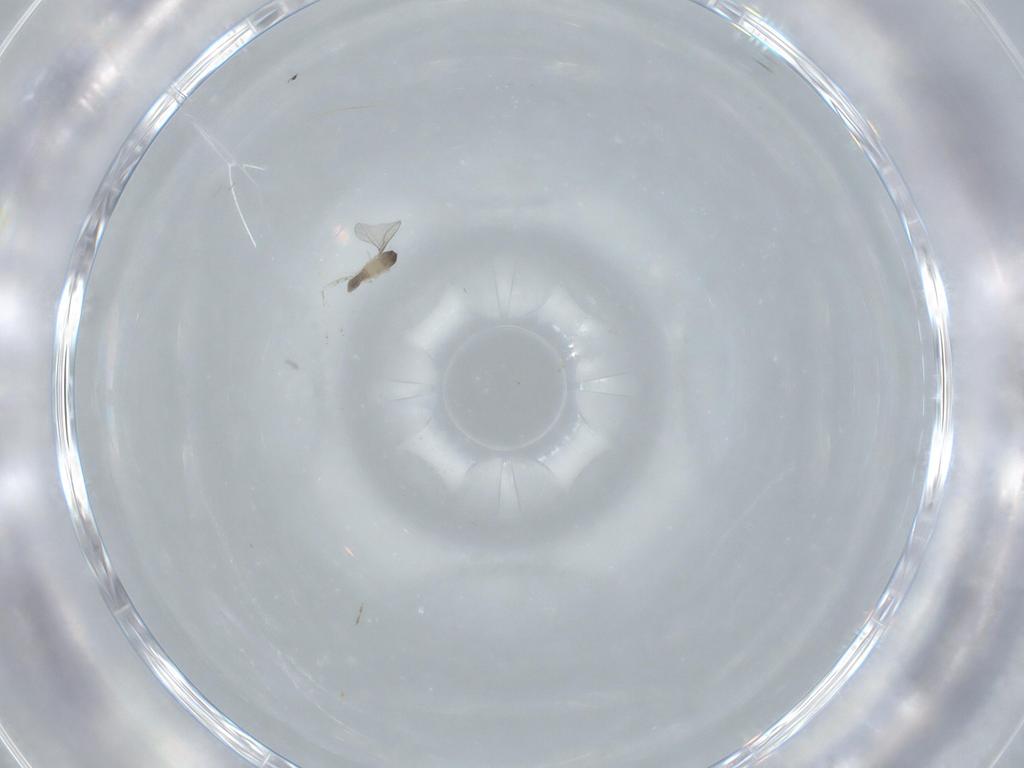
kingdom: Animalia
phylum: Arthropoda
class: Insecta
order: Diptera
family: Cecidomyiidae
